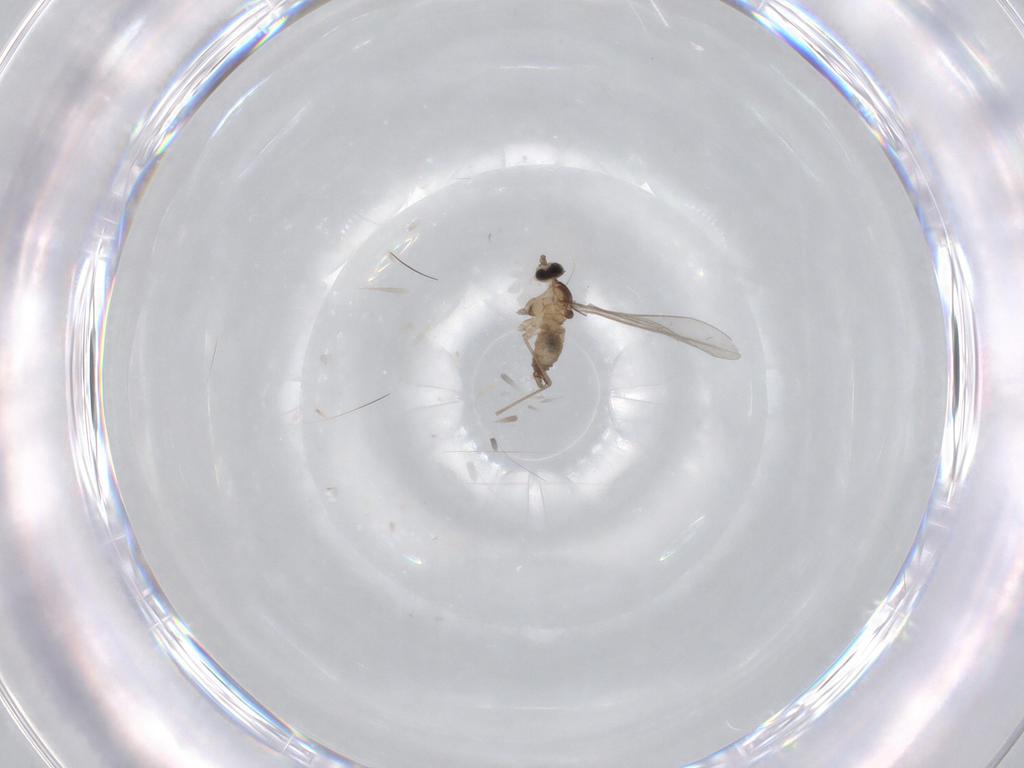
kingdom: Animalia
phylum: Arthropoda
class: Insecta
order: Diptera
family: Cecidomyiidae
